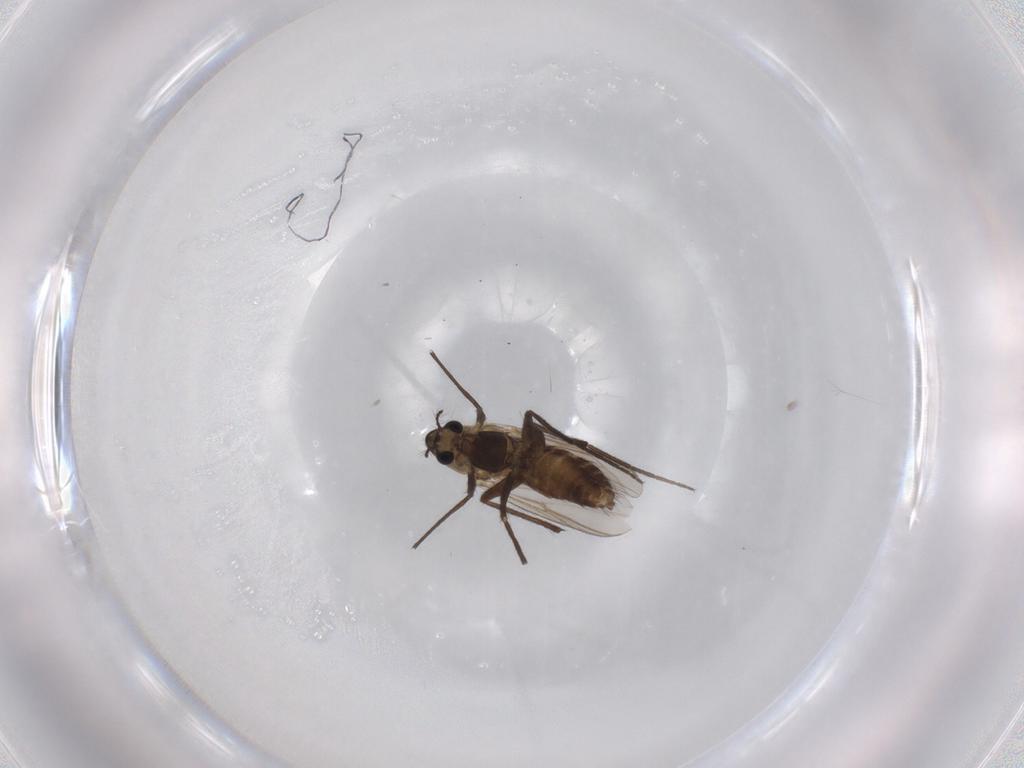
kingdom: Animalia
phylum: Arthropoda
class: Insecta
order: Diptera
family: Chironomidae
